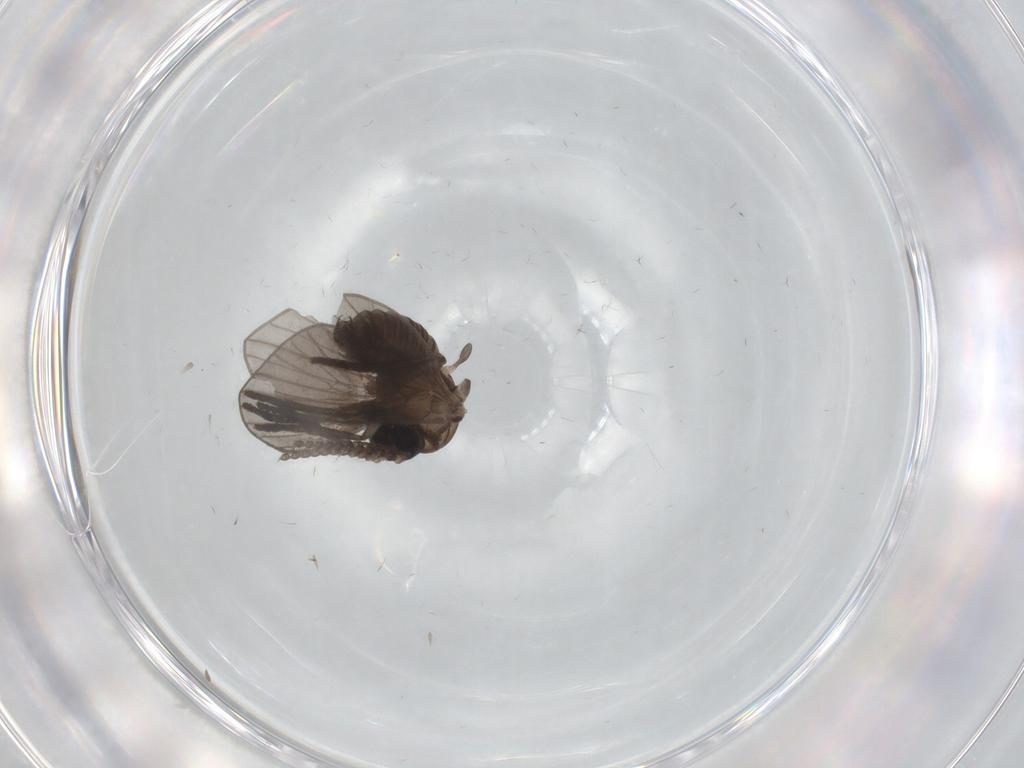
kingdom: Animalia
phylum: Arthropoda
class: Insecta
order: Diptera
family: Psychodidae
